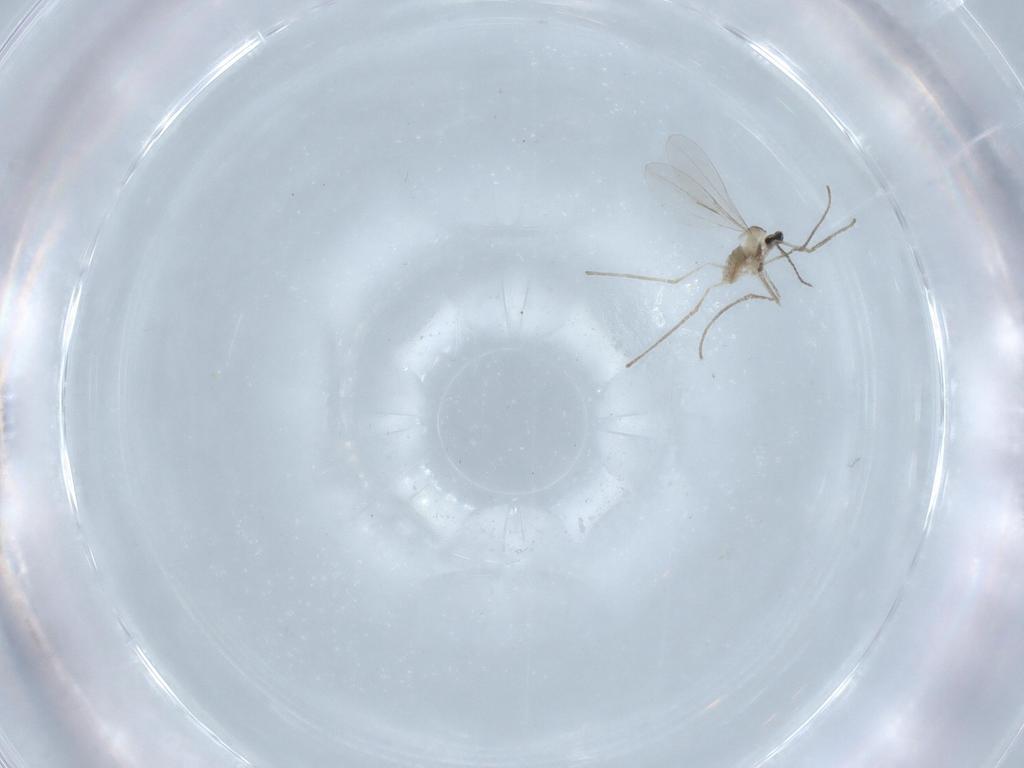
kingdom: Animalia
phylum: Arthropoda
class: Insecta
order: Diptera
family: Cecidomyiidae
